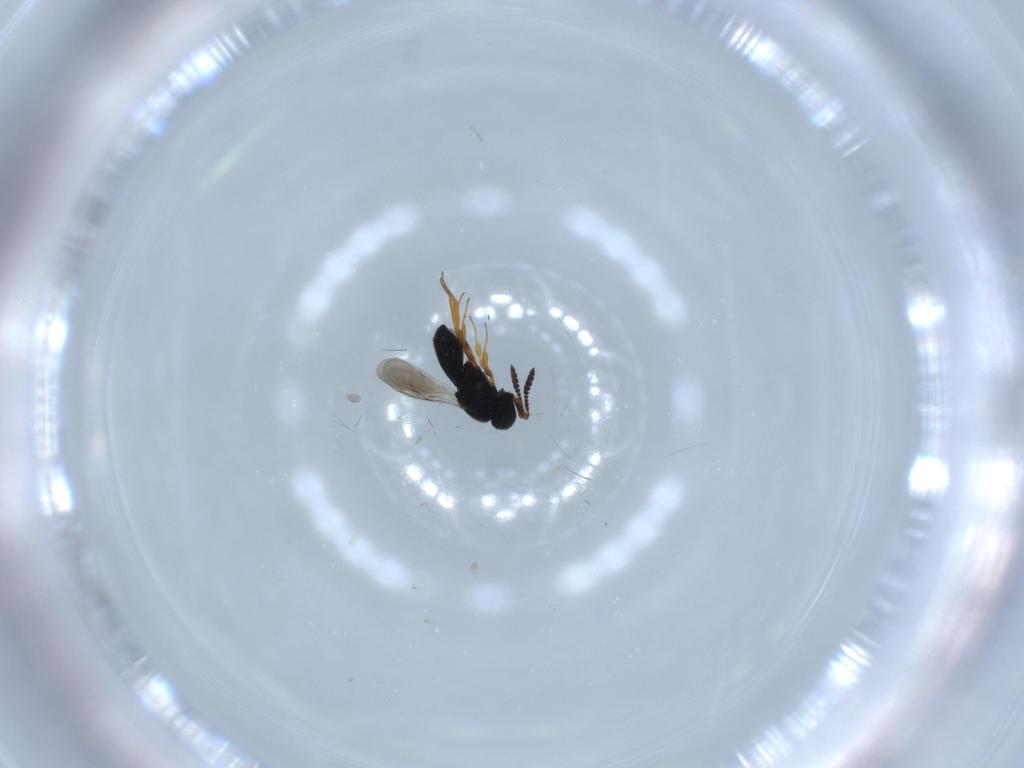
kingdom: Animalia
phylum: Arthropoda
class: Insecta
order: Hymenoptera
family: Scelionidae
